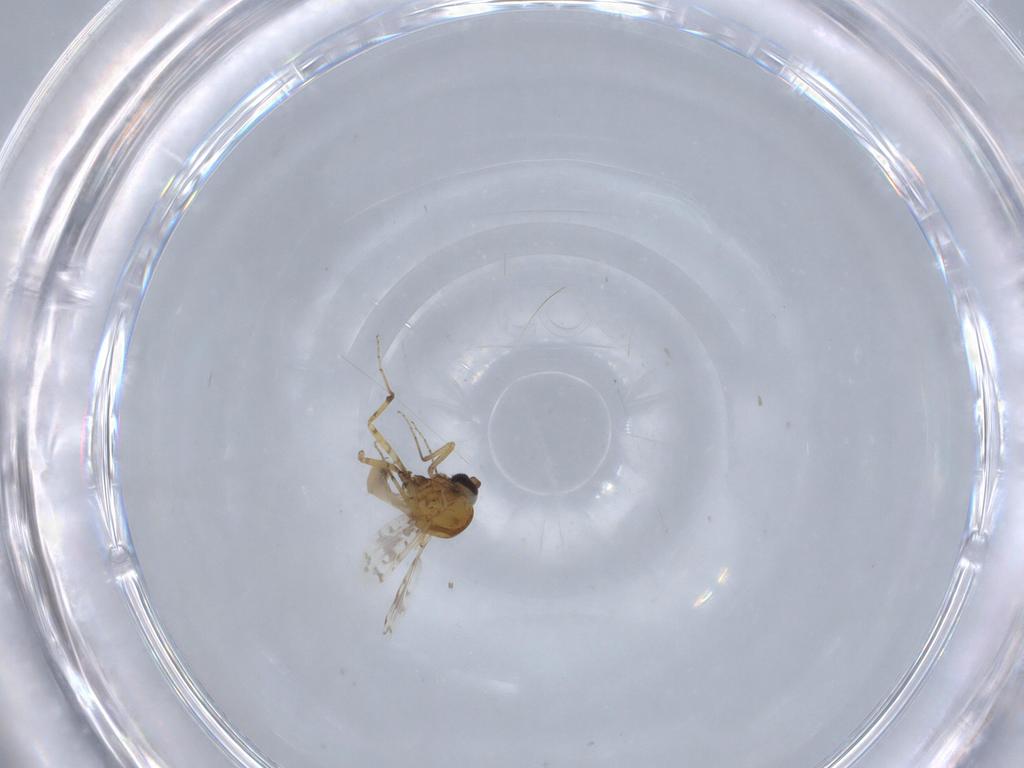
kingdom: Animalia
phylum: Arthropoda
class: Insecta
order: Diptera
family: Ceratopogonidae
